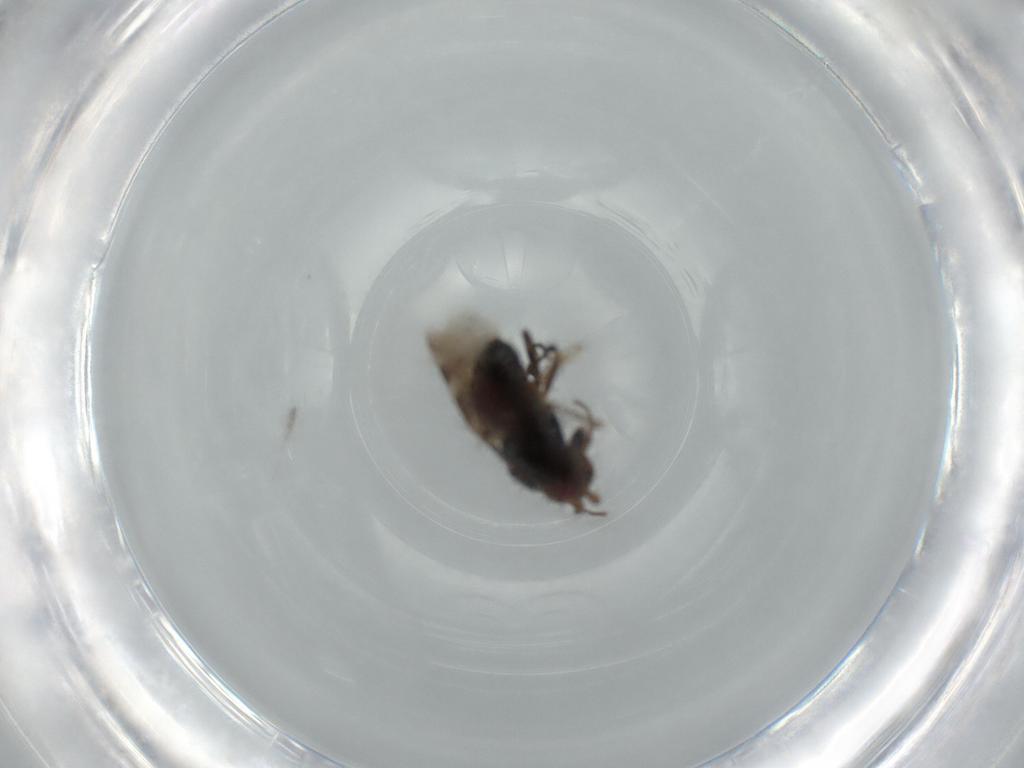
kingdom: Animalia
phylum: Arthropoda
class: Insecta
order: Diptera
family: Sphaeroceridae
